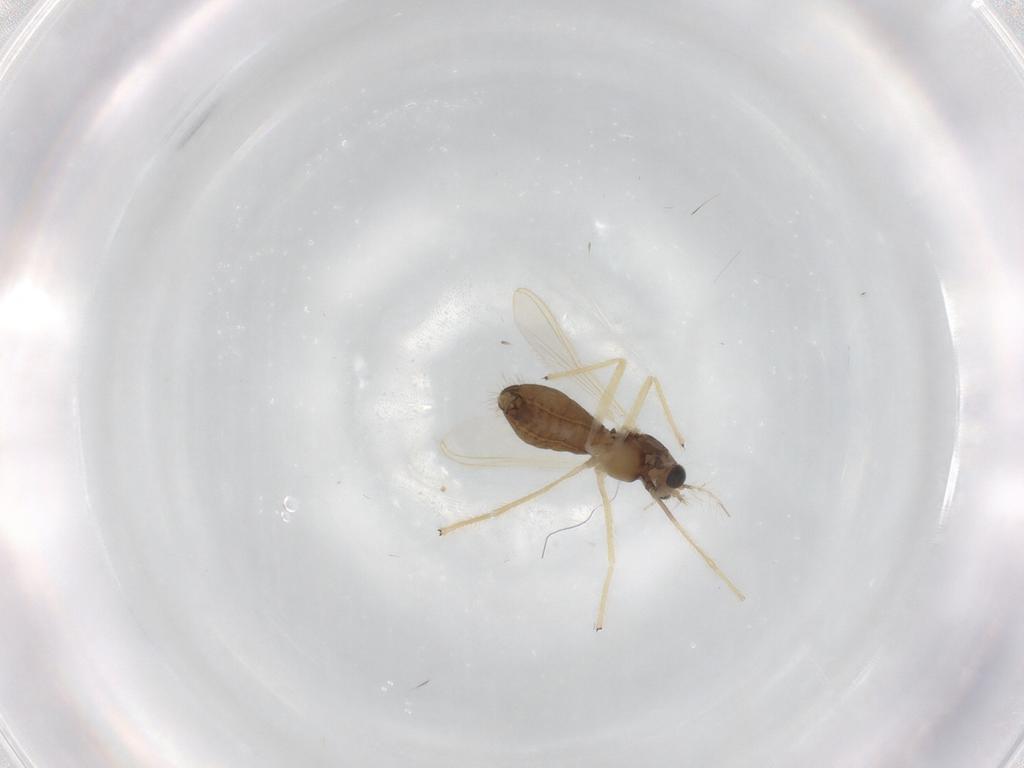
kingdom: Animalia
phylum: Arthropoda
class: Insecta
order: Diptera
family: Chironomidae
